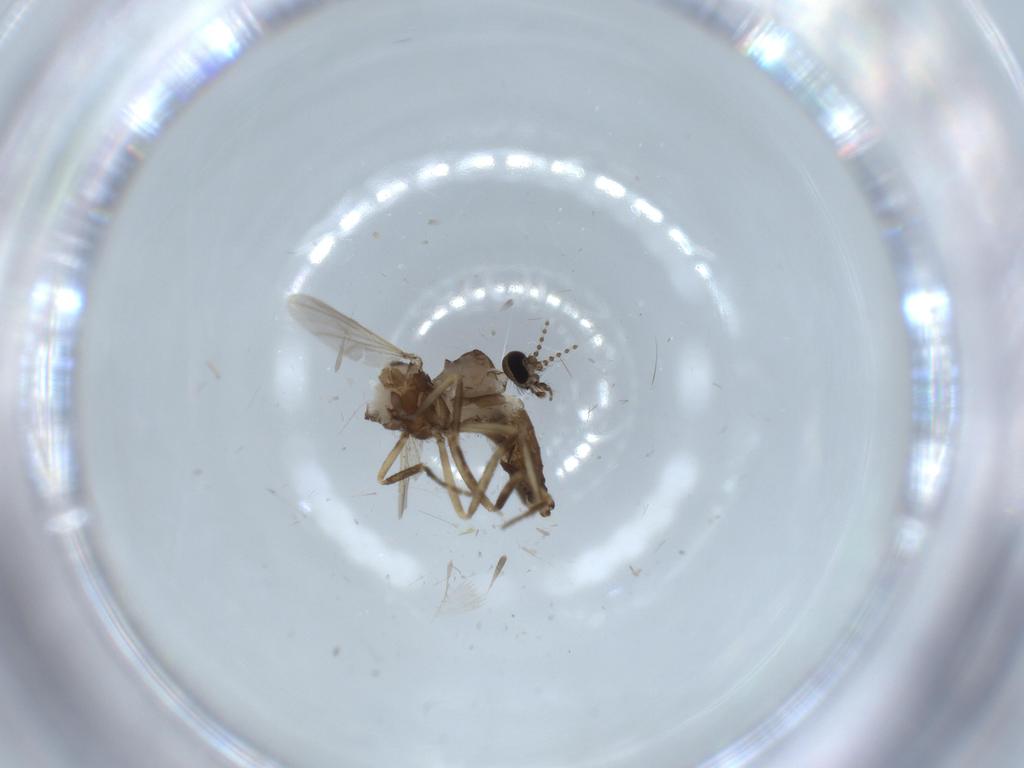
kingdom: Animalia
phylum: Arthropoda
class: Insecta
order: Diptera
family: Ceratopogonidae
